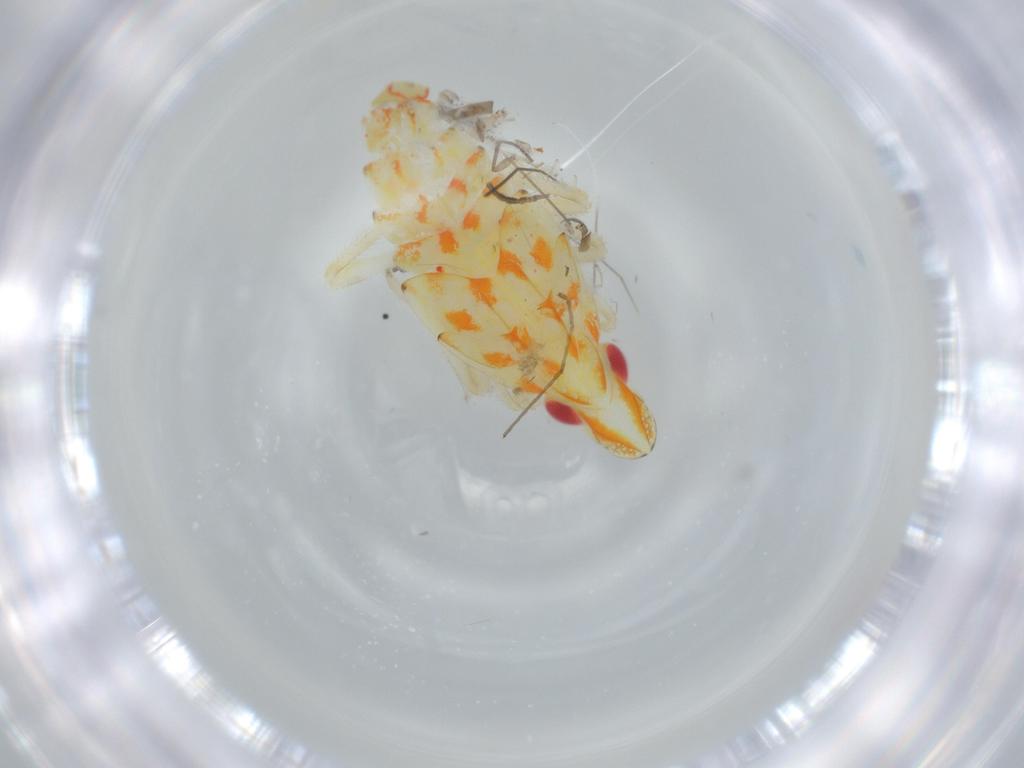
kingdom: Animalia
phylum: Arthropoda
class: Insecta
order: Hemiptera
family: Tropiduchidae
